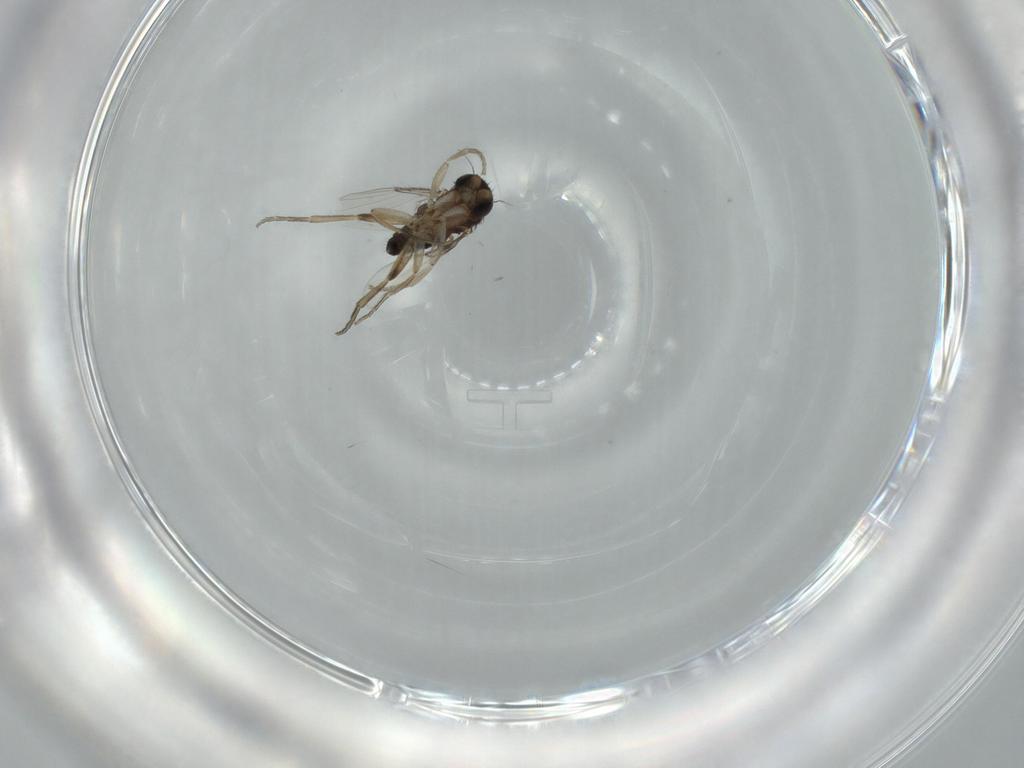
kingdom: Animalia
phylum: Arthropoda
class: Insecta
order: Diptera
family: Phoridae
